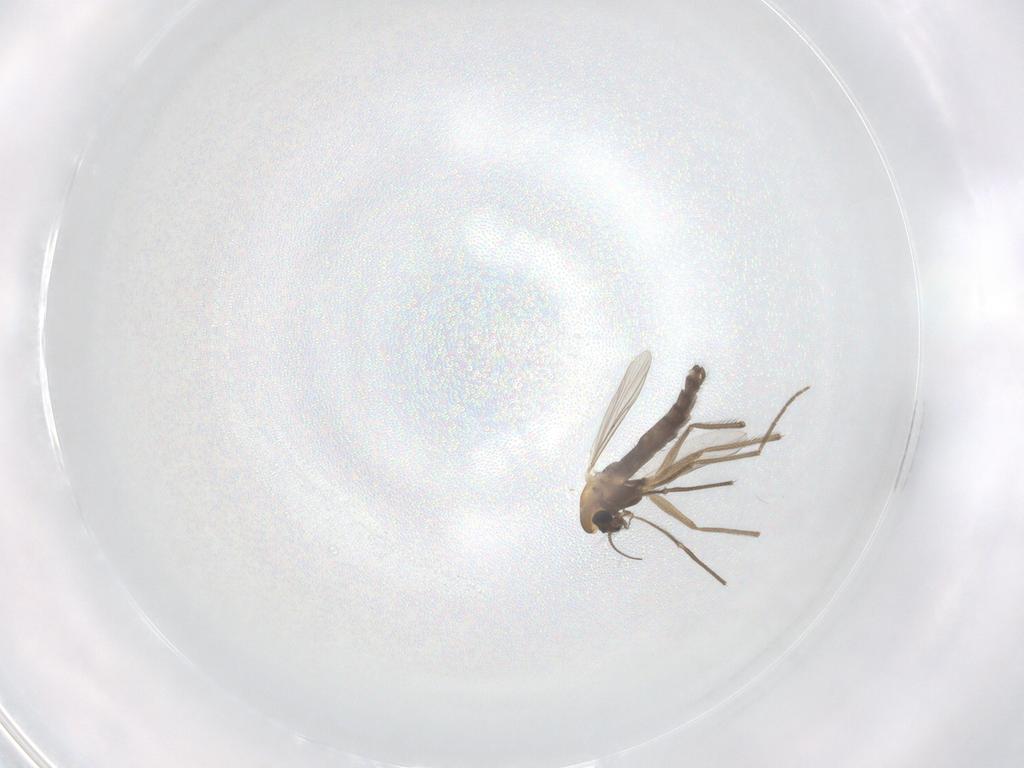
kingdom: Animalia
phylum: Arthropoda
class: Insecta
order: Diptera
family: Chironomidae
